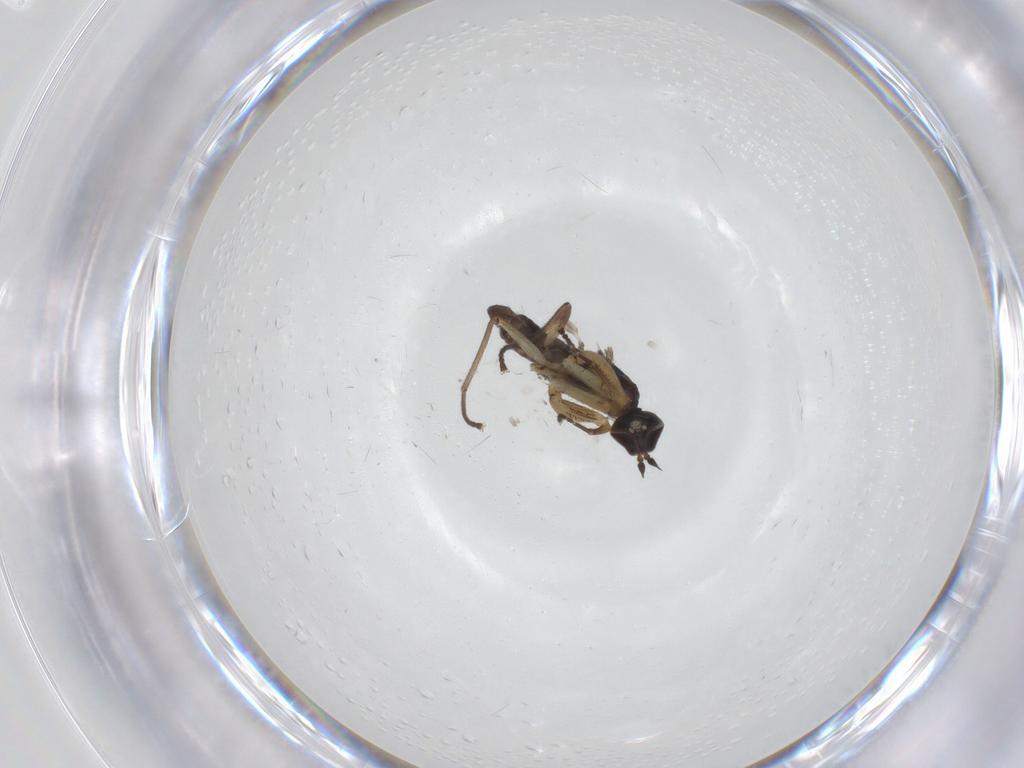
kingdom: Animalia
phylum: Arthropoda
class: Insecta
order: Diptera
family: Empididae
